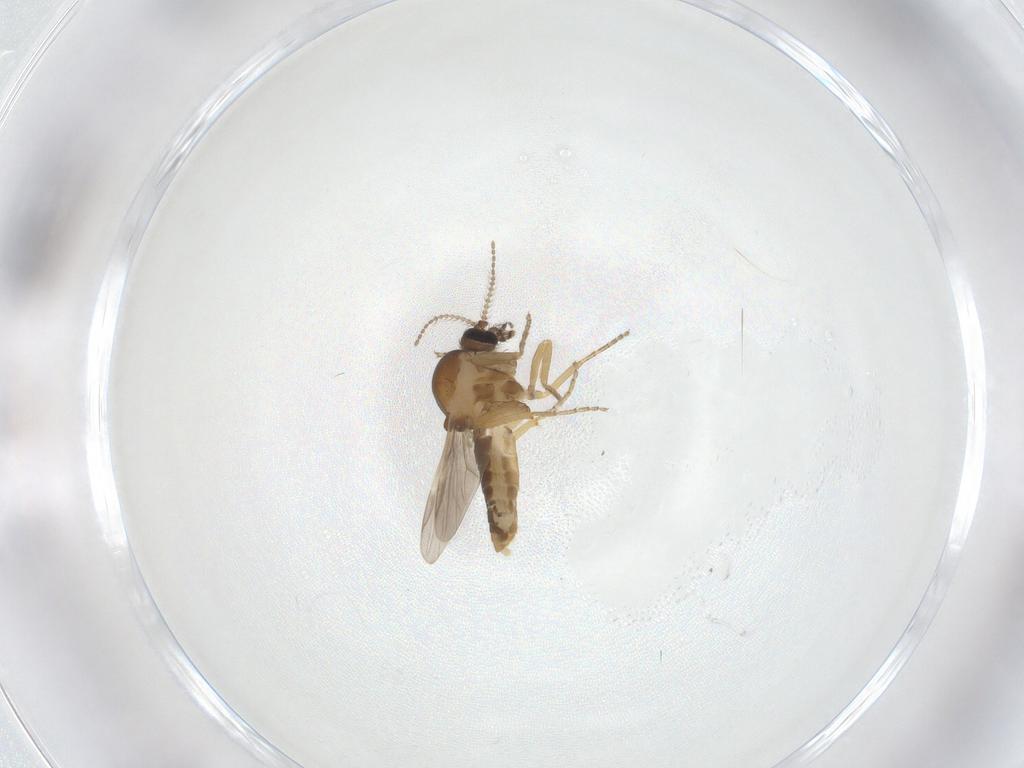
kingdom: Animalia
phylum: Arthropoda
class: Insecta
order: Diptera
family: Ceratopogonidae
